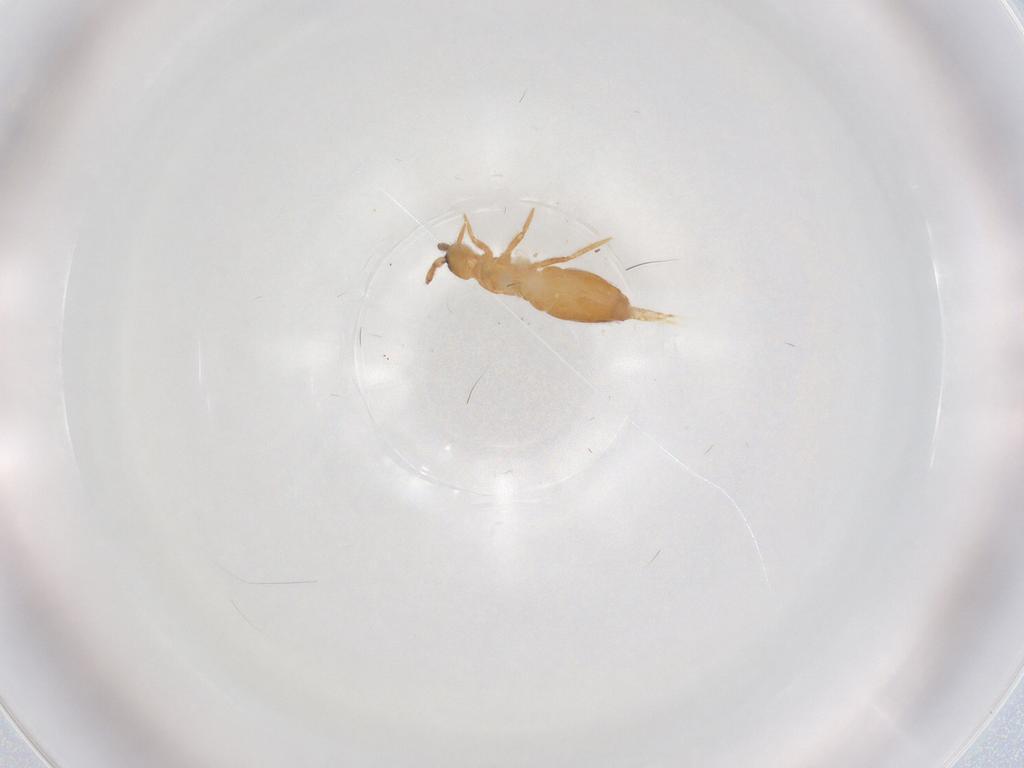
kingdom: Animalia
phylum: Arthropoda
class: Collembola
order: Entomobryomorpha
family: Entomobryidae
